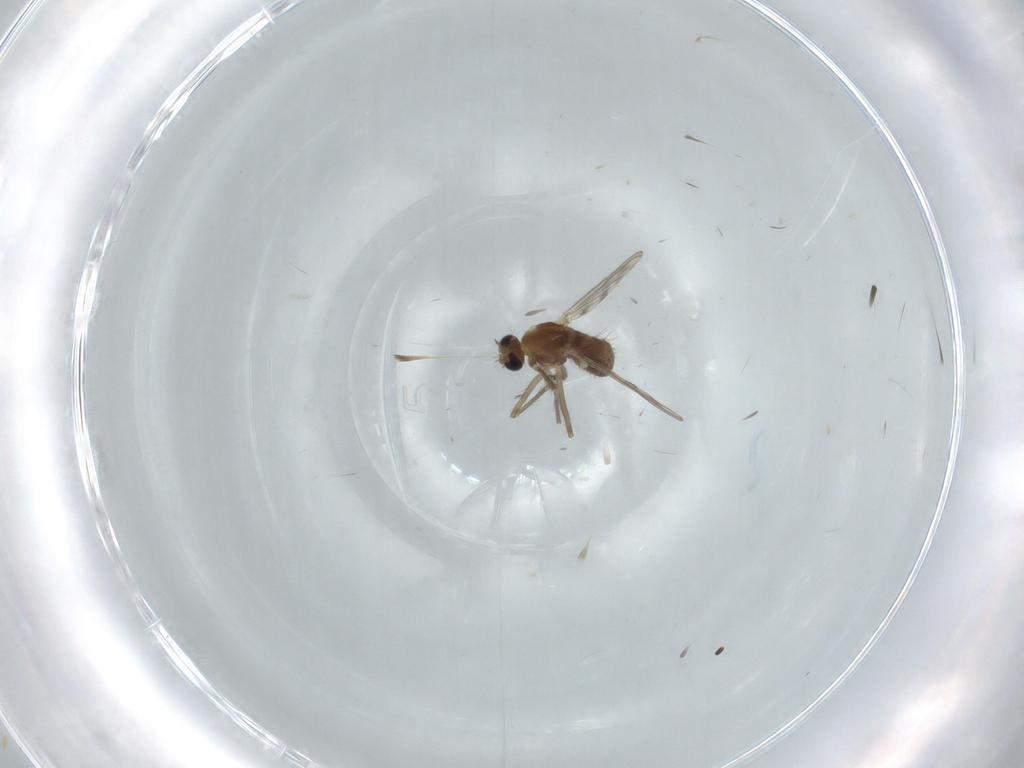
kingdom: Animalia
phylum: Arthropoda
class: Insecta
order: Diptera
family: Chironomidae
